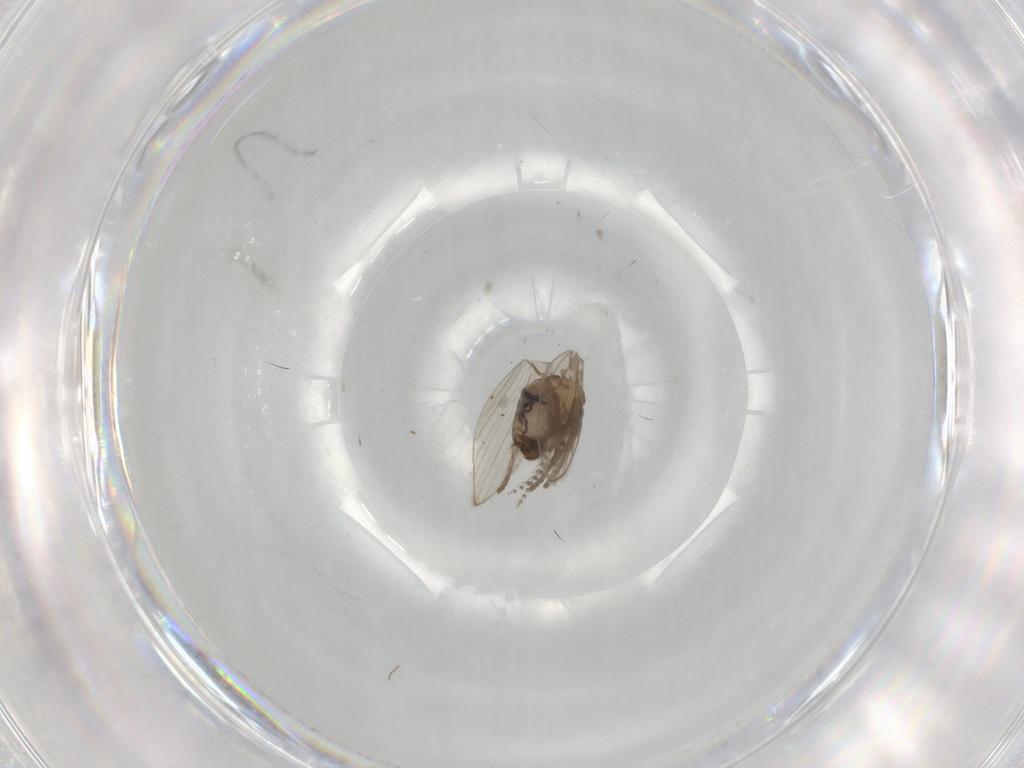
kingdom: Animalia
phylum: Arthropoda
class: Insecta
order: Diptera
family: Psychodidae
